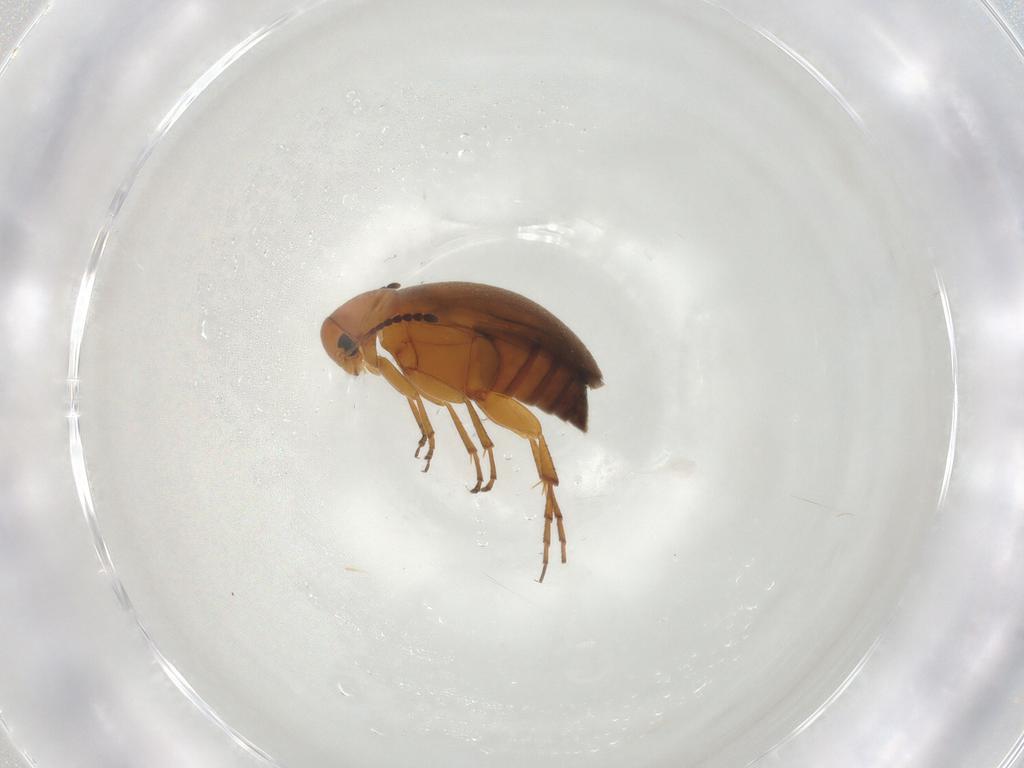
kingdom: Animalia
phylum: Arthropoda
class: Insecta
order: Coleoptera
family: Scraptiidae
